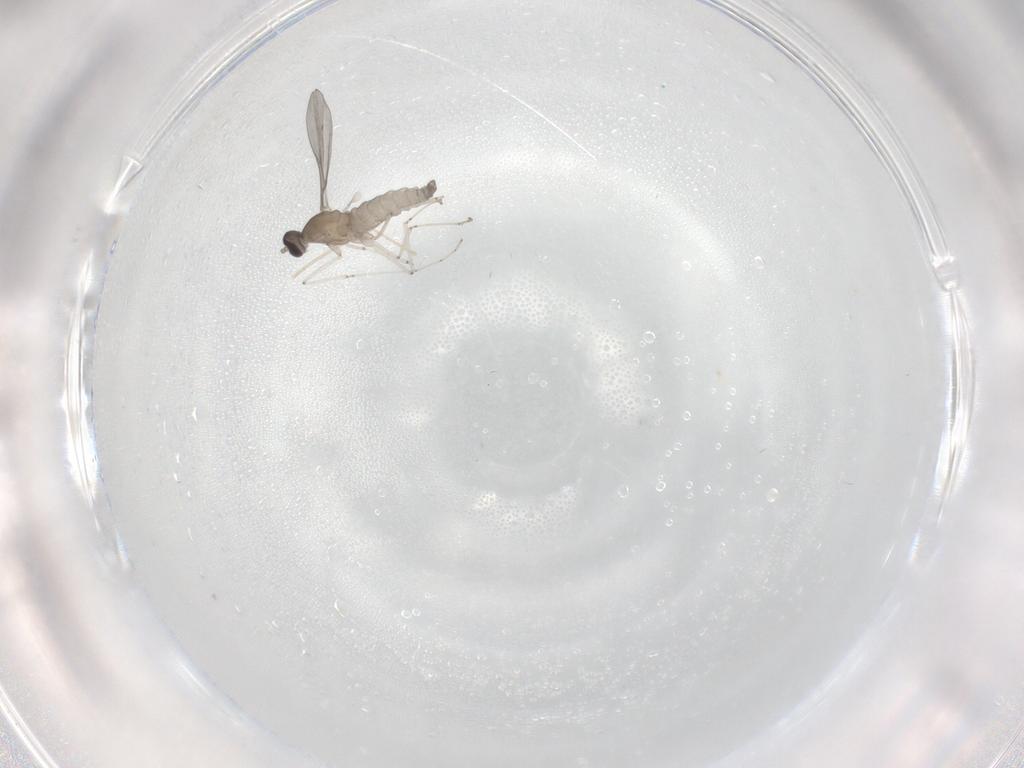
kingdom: Animalia
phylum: Arthropoda
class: Insecta
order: Diptera
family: Cecidomyiidae
